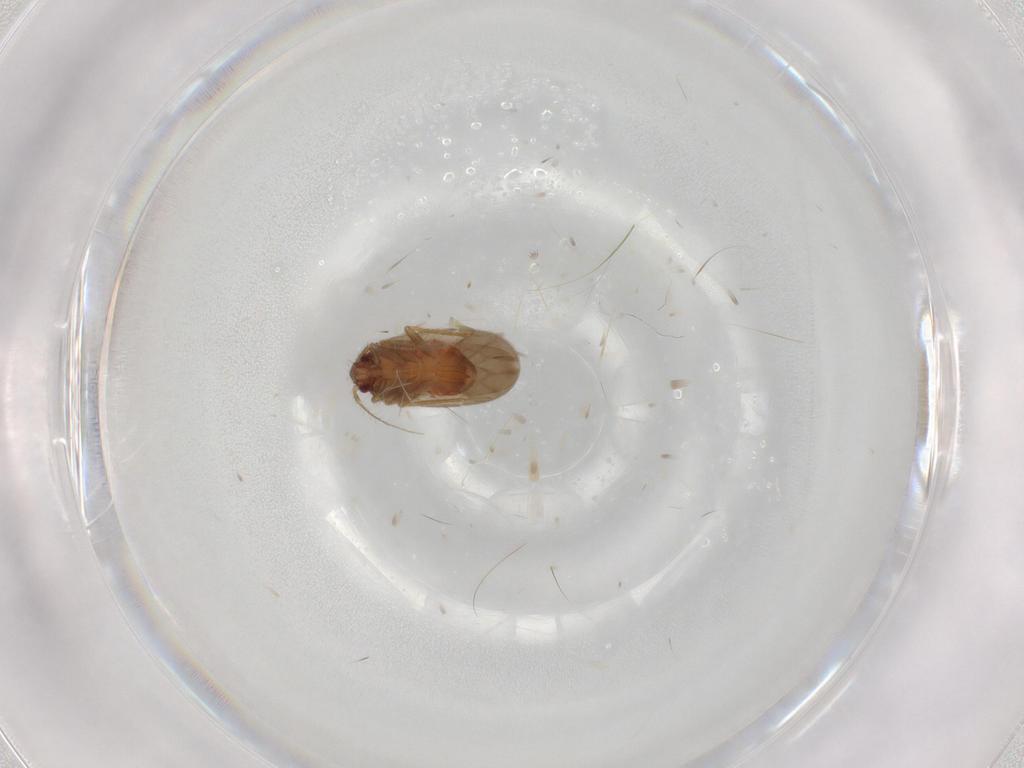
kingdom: Animalia
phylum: Arthropoda
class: Insecta
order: Hemiptera
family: Ceratocombidae
